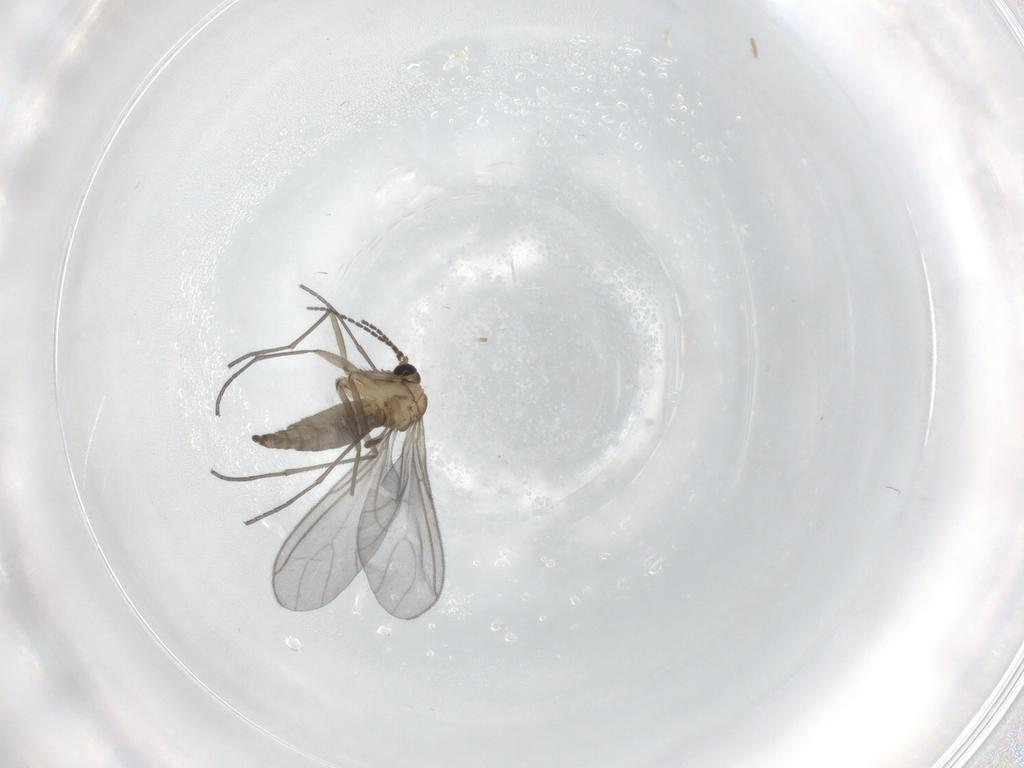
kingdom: Animalia
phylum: Arthropoda
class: Insecta
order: Diptera
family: Chironomidae
